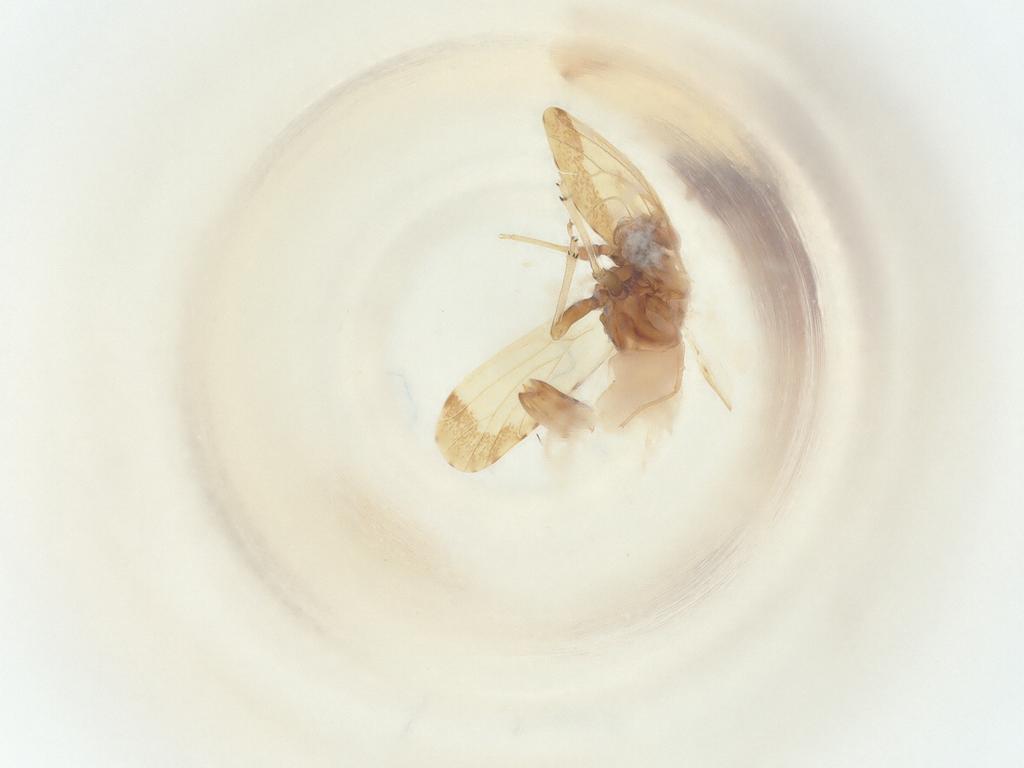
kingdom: Animalia
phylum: Arthropoda
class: Insecta
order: Hemiptera
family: Psyllidae
